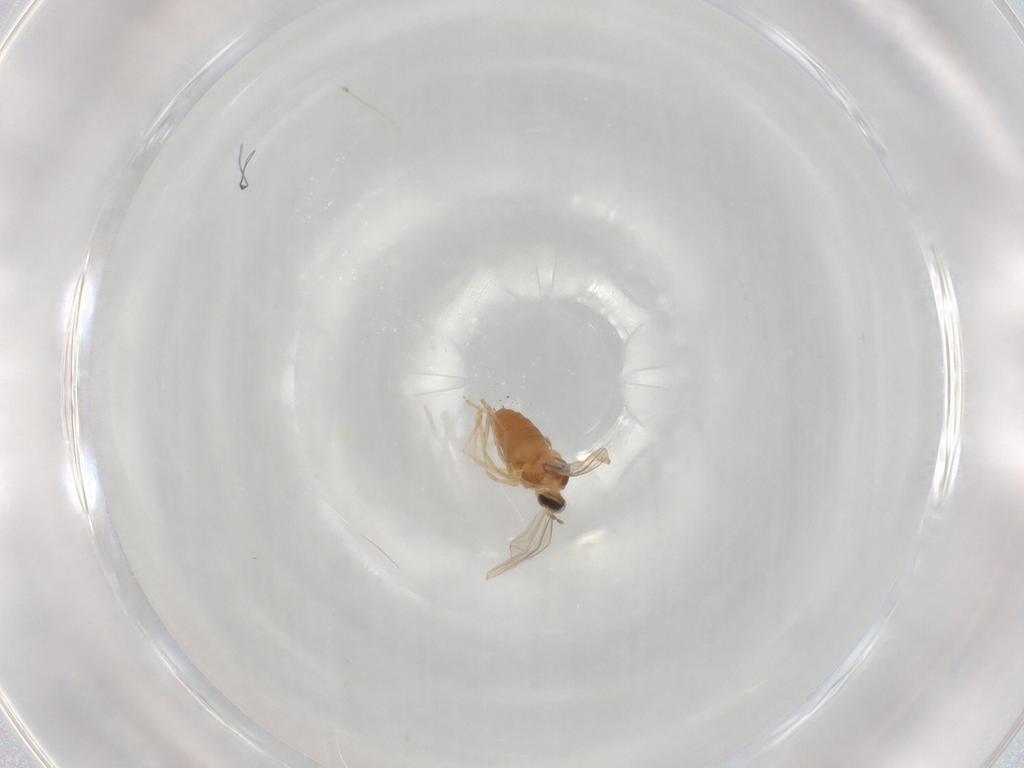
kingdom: Animalia
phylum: Arthropoda
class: Insecta
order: Diptera
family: Cecidomyiidae
